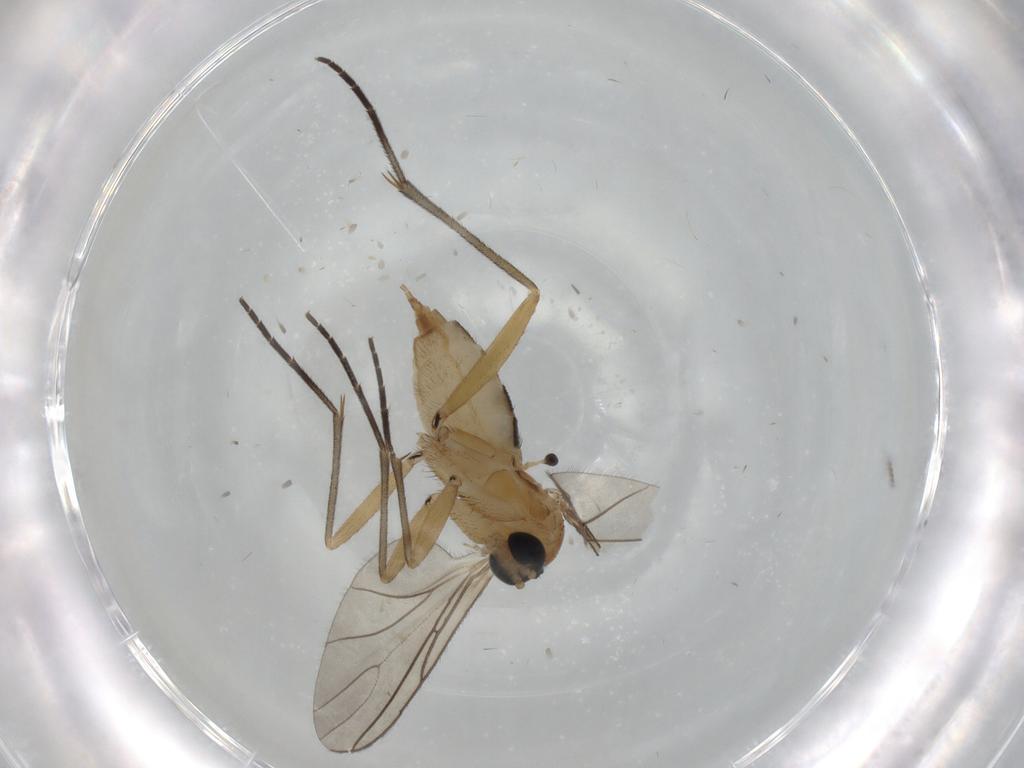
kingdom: Animalia
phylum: Arthropoda
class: Insecta
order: Diptera
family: Sciaridae
